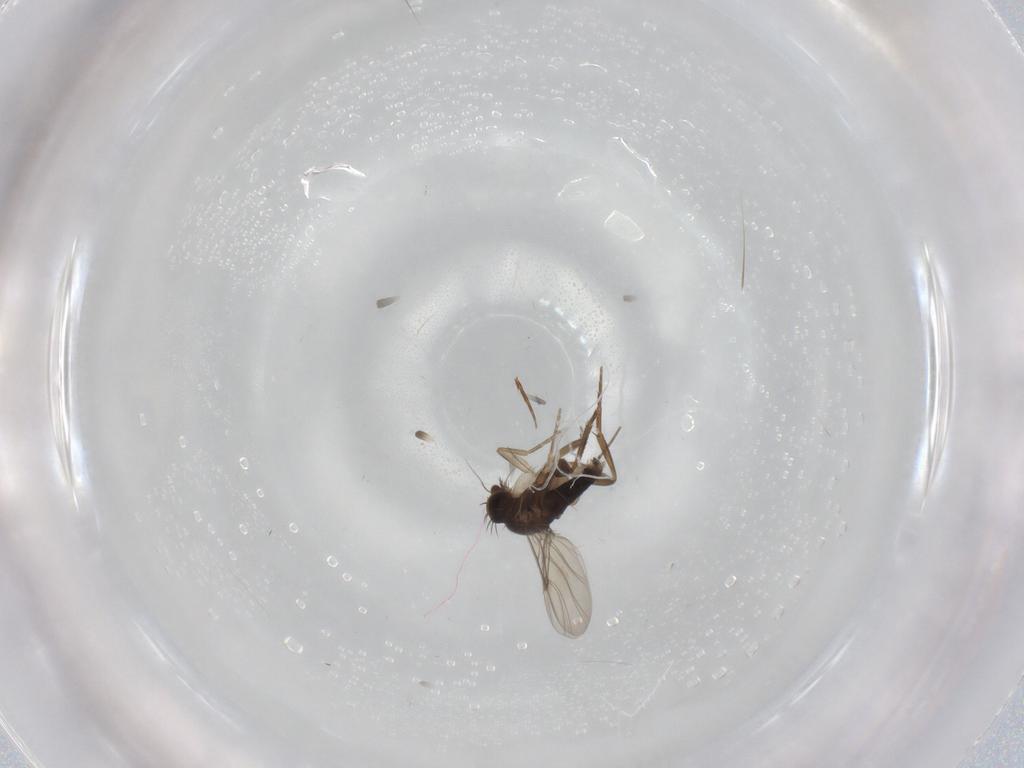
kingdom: Animalia
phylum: Arthropoda
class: Insecta
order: Diptera
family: Phoridae
